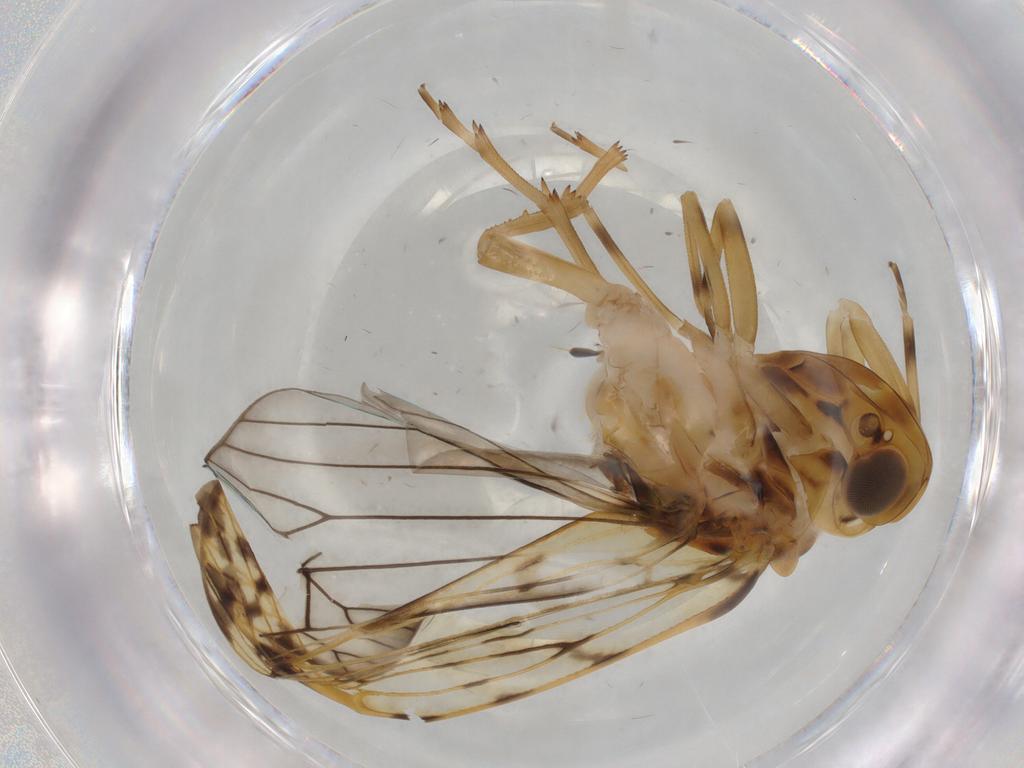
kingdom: Animalia
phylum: Arthropoda
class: Insecta
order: Hemiptera
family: Cixiidae
